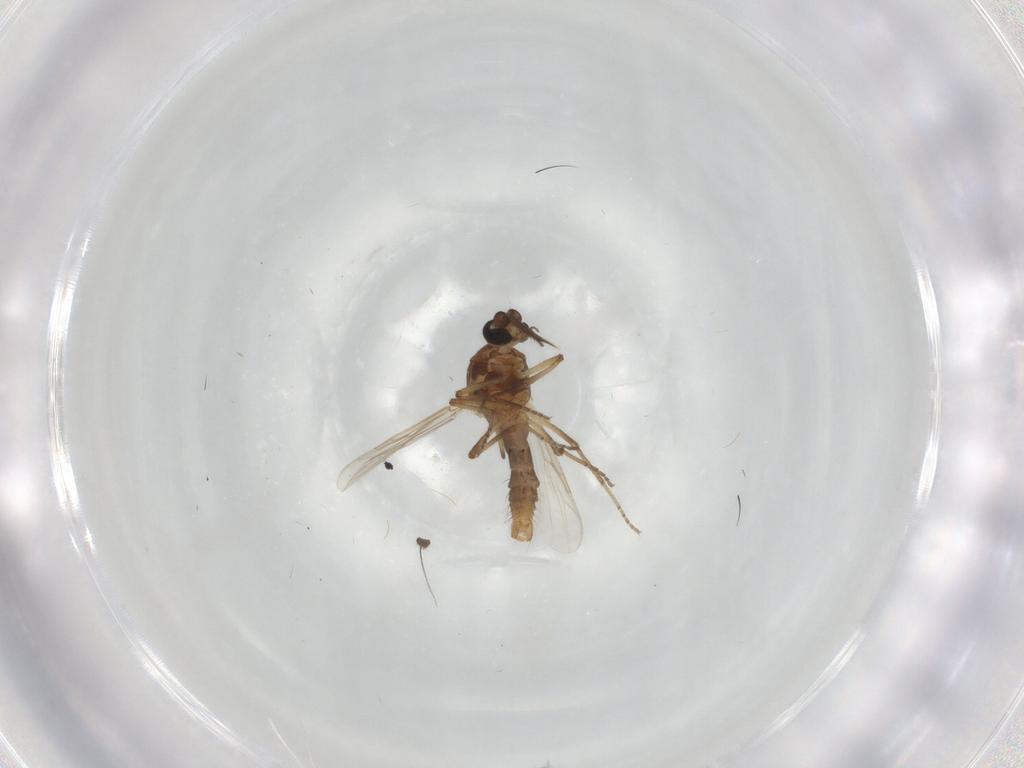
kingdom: Animalia
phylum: Arthropoda
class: Insecta
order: Diptera
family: Ceratopogonidae
